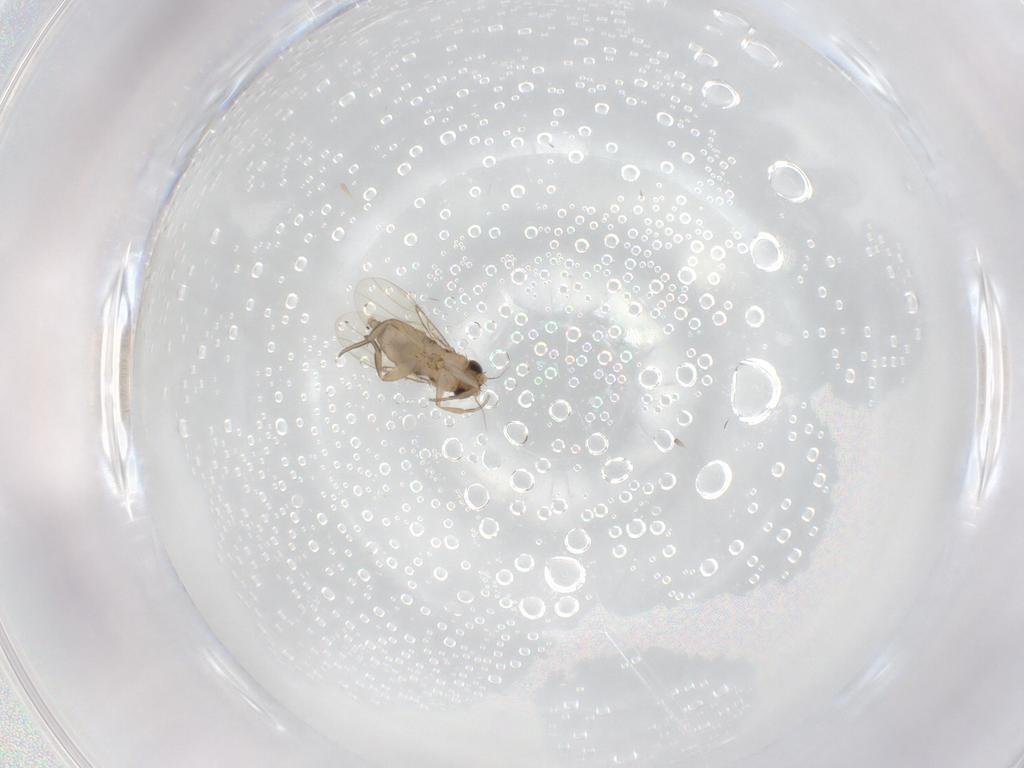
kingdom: Animalia
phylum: Arthropoda
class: Insecta
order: Diptera
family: Phoridae
